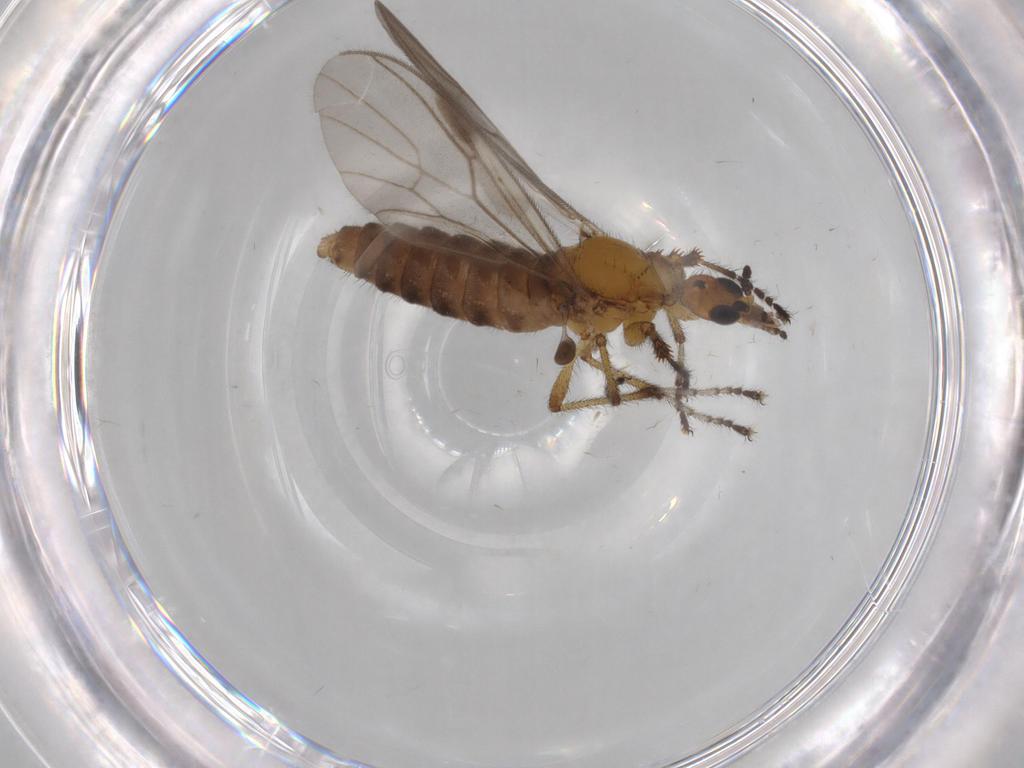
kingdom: Animalia
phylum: Arthropoda
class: Insecta
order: Diptera
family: Bibionidae
